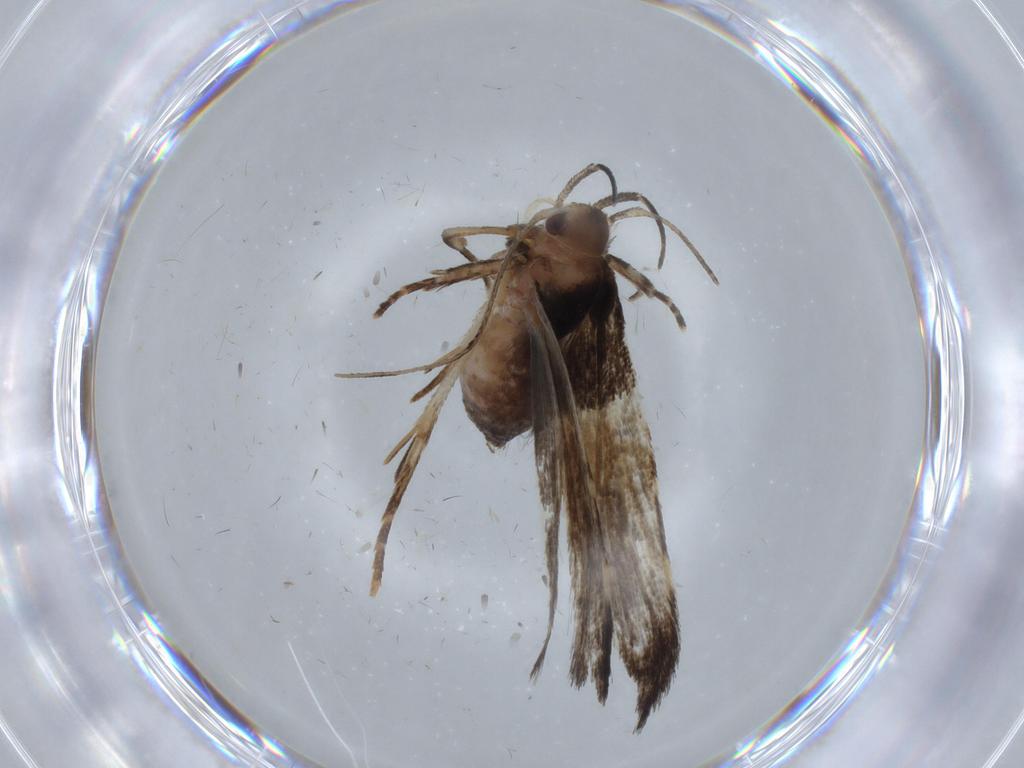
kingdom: Animalia
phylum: Arthropoda
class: Insecta
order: Lepidoptera
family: Cosmopterigidae
